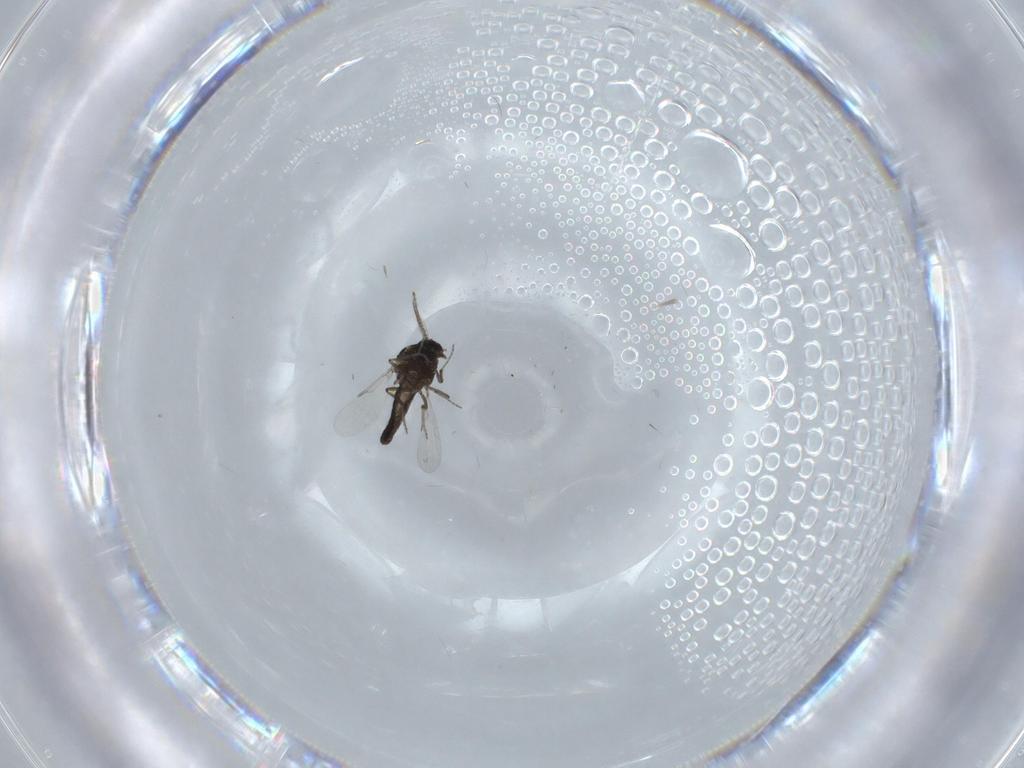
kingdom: Animalia
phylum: Arthropoda
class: Insecta
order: Diptera
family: Ceratopogonidae
